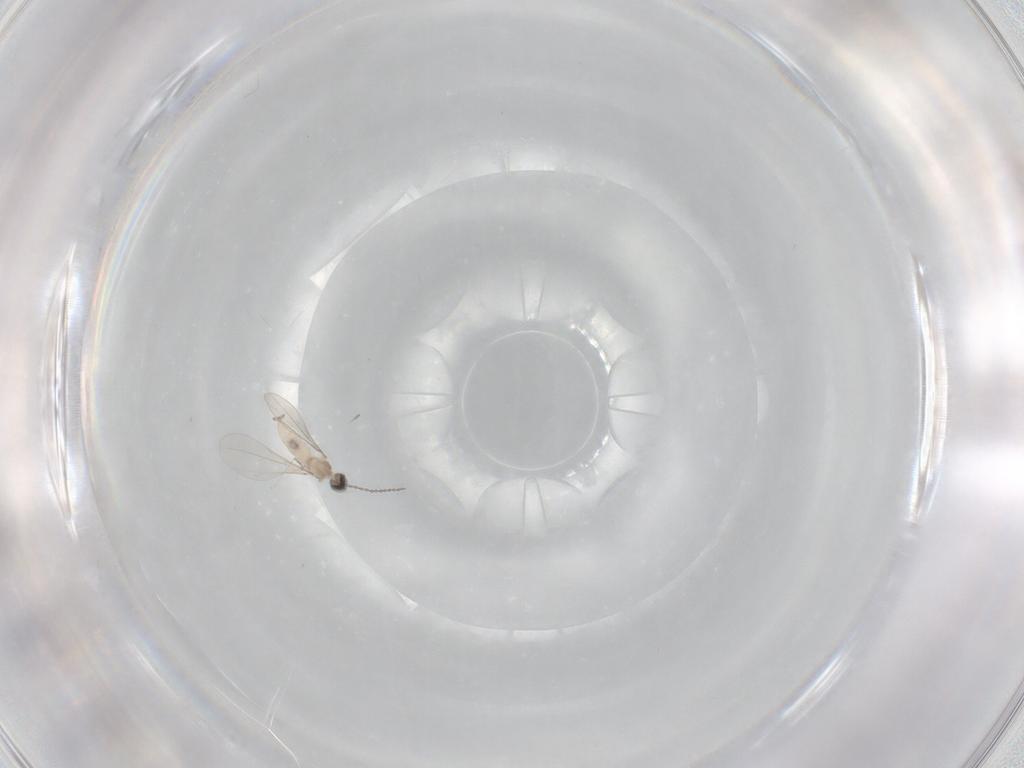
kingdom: Animalia
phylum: Arthropoda
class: Insecta
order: Diptera
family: Cecidomyiidae
